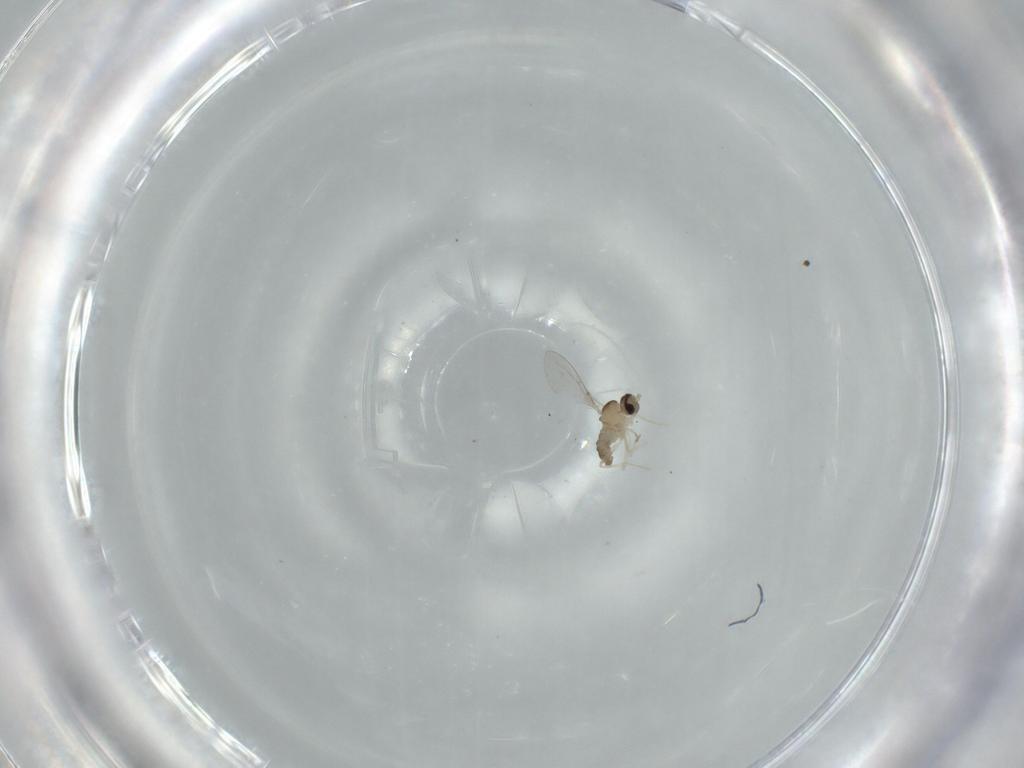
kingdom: Animalia
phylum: Arthropoda
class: Insecta
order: Diptera
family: Cecidomyiidae
